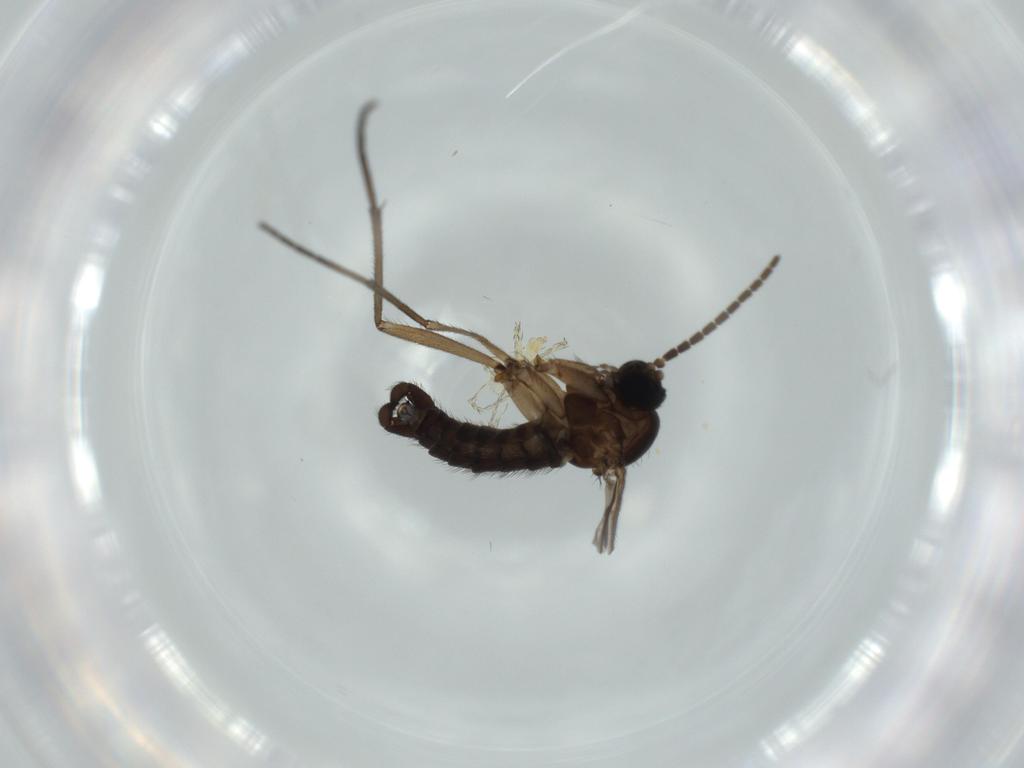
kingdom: Animalia
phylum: Arthropoda
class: Insecta
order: Diptera
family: Sciaridae
